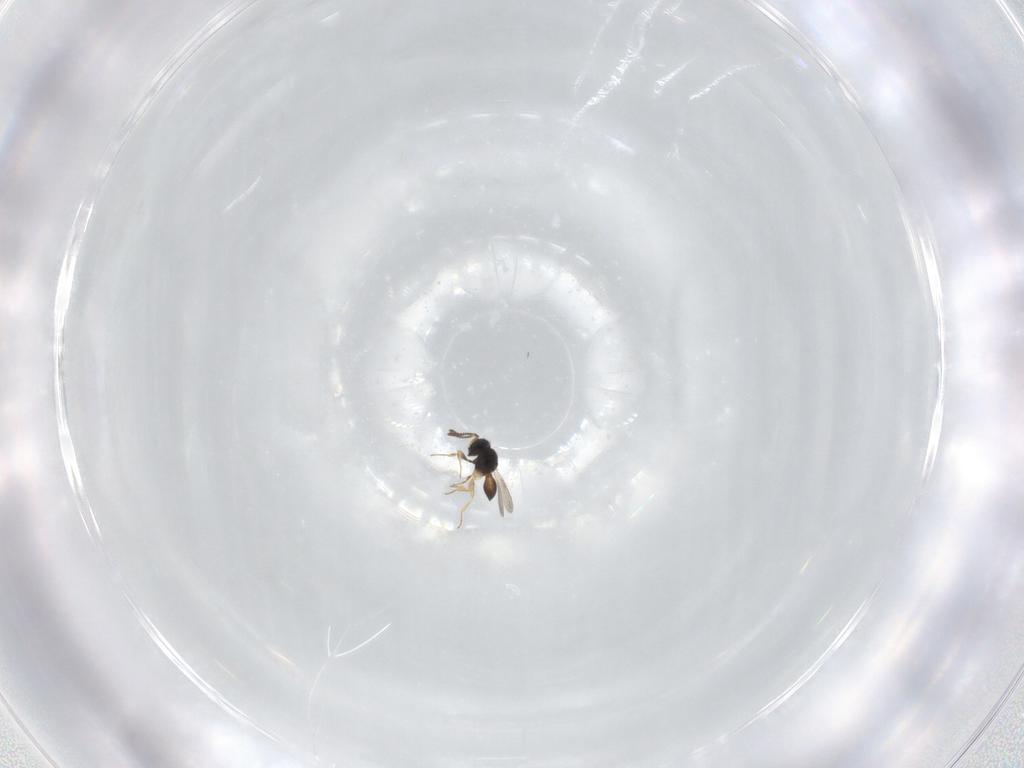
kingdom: Animalia
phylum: Arthropoda
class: Insecta
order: Hymenoptera
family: Scelionidae
